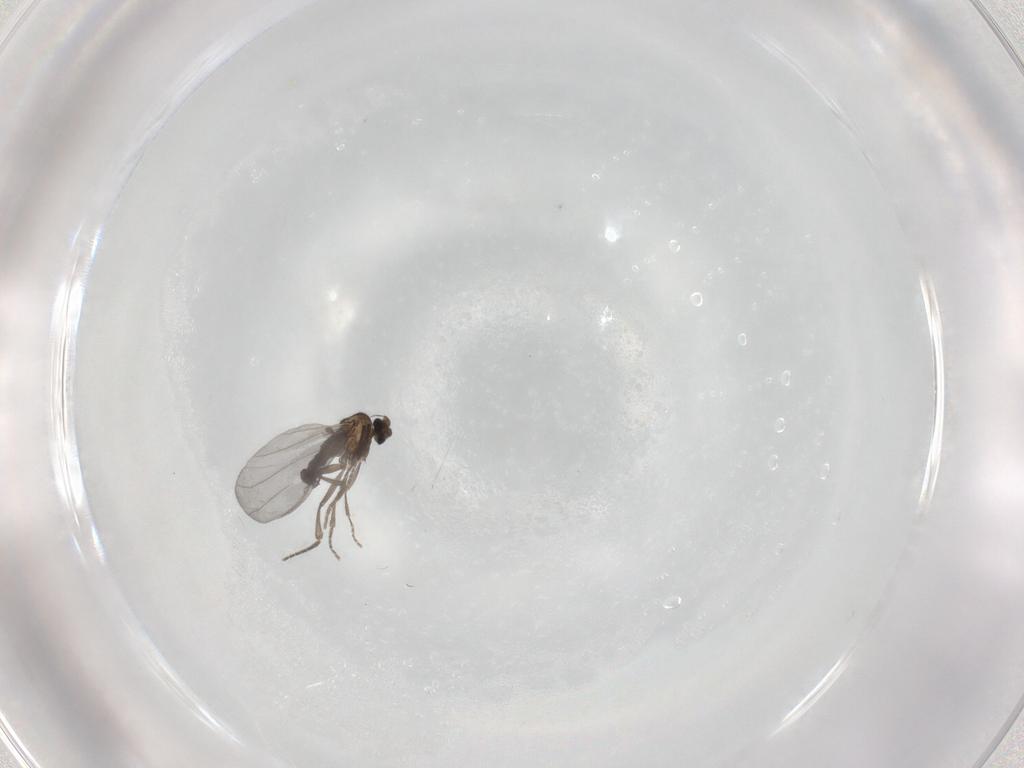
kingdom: Animalia
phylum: Arthropoda
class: Insecta
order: Diptera
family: Phoridae
